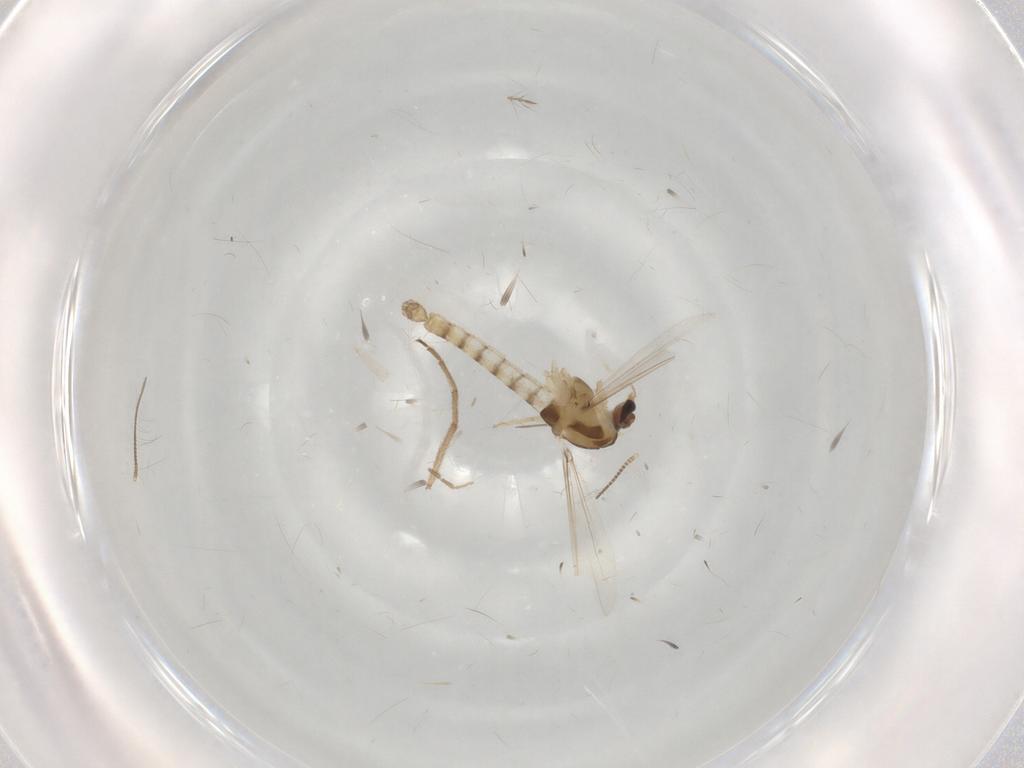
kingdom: Animalia
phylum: Arthropoda
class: Insecta
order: Diptera
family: Chironomidae
